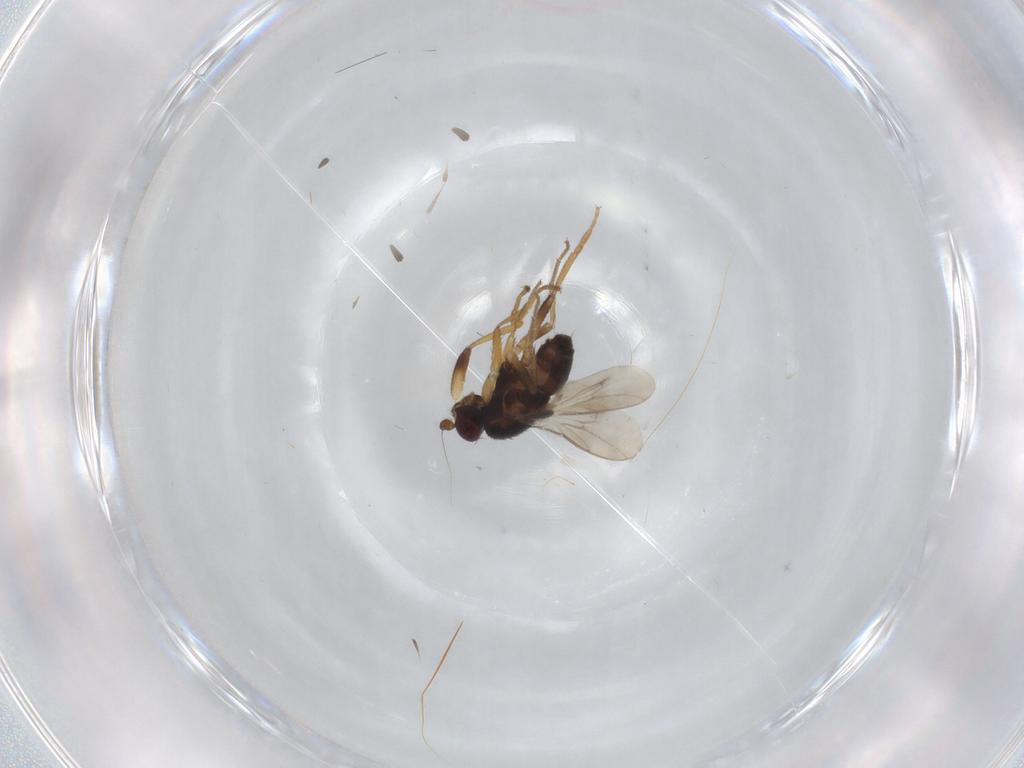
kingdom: Animalia
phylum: Arthropoda
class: Insecta
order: Diptera
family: Sphaeroceridae
